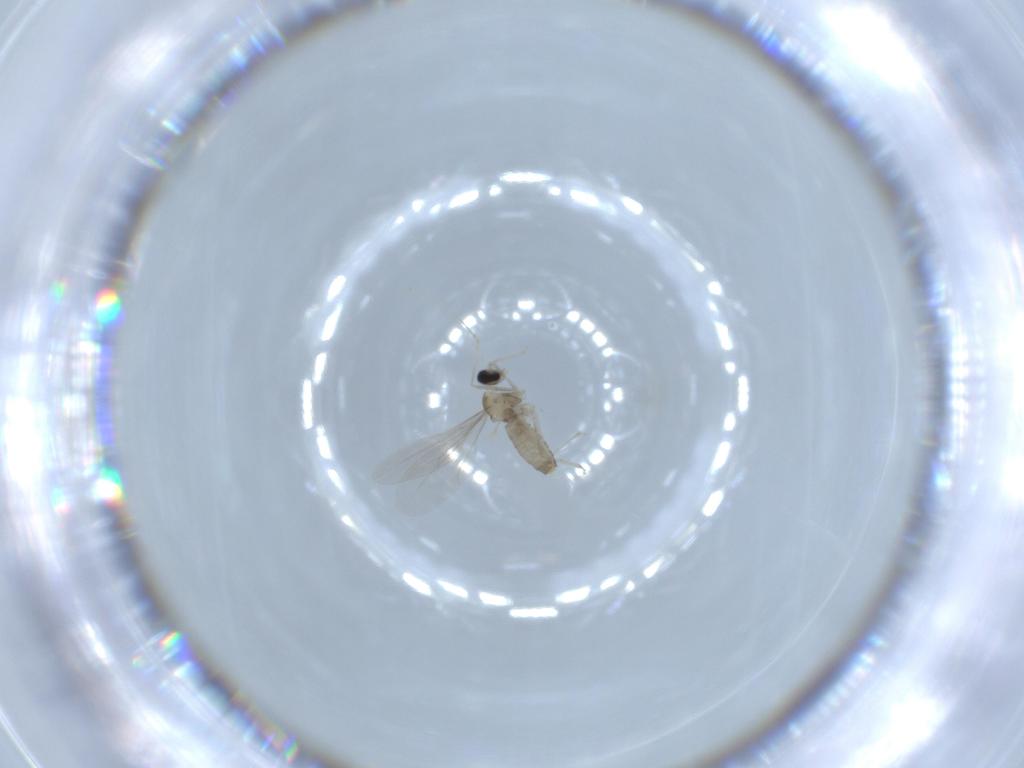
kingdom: Animalia
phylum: Arthropoda
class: Insecta
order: Diptera
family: Cecidomyiidae
